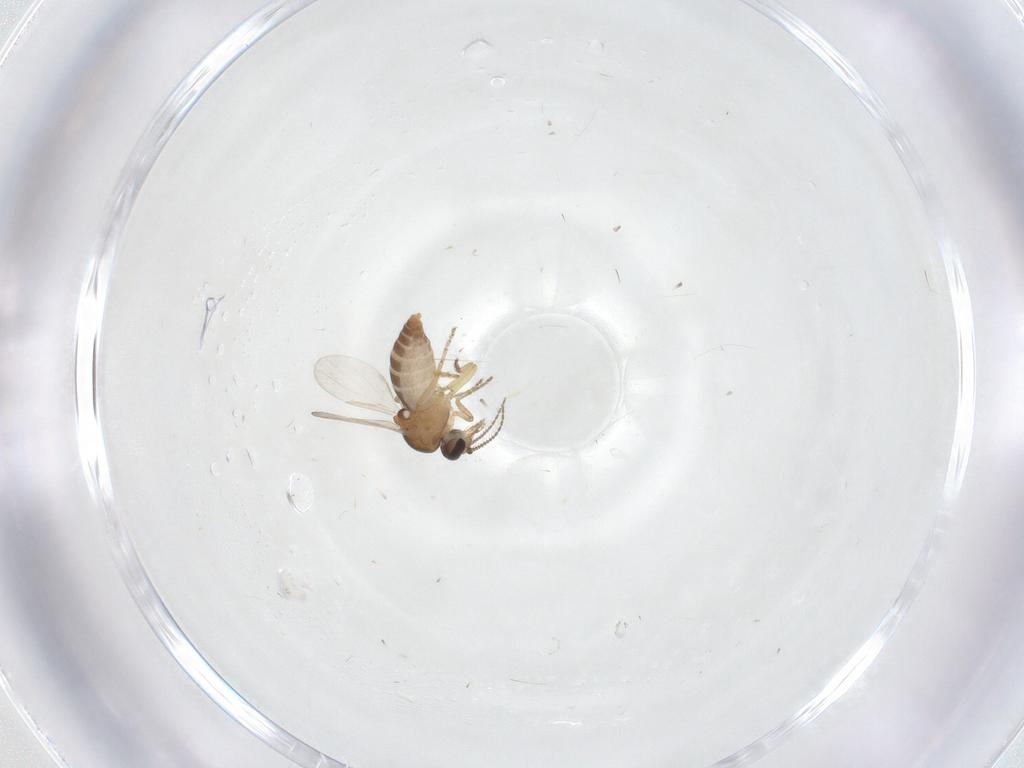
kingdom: Animalia
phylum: Arthropoda
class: Insecta
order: Diptera
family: Ceratopogonidae
